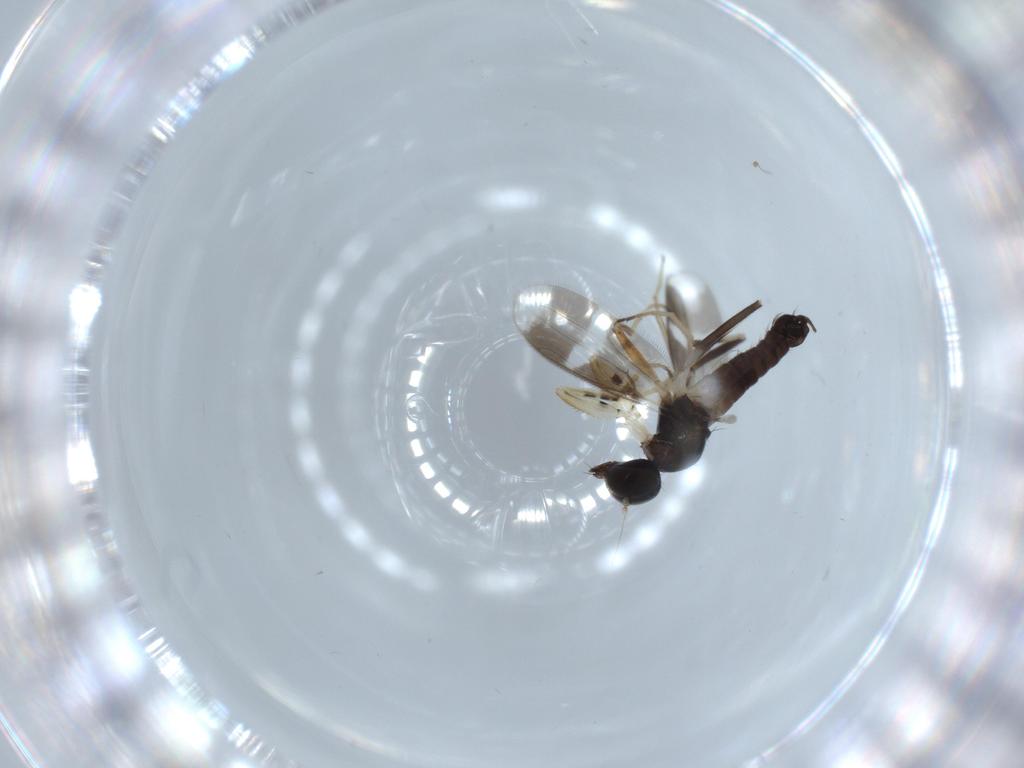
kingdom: Animalia
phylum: Arthropoda
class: Insecta
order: Diptera
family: Hybotidae
